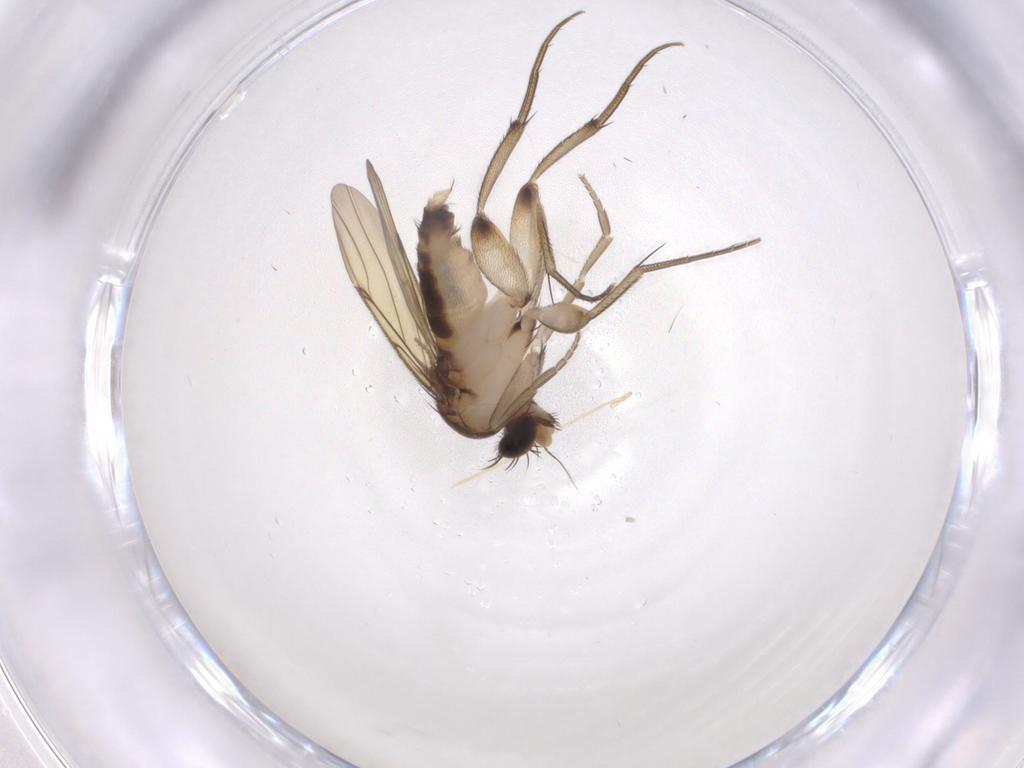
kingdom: Animalia
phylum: Arthropoda
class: Insecta
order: Diptera
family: Phoridae
